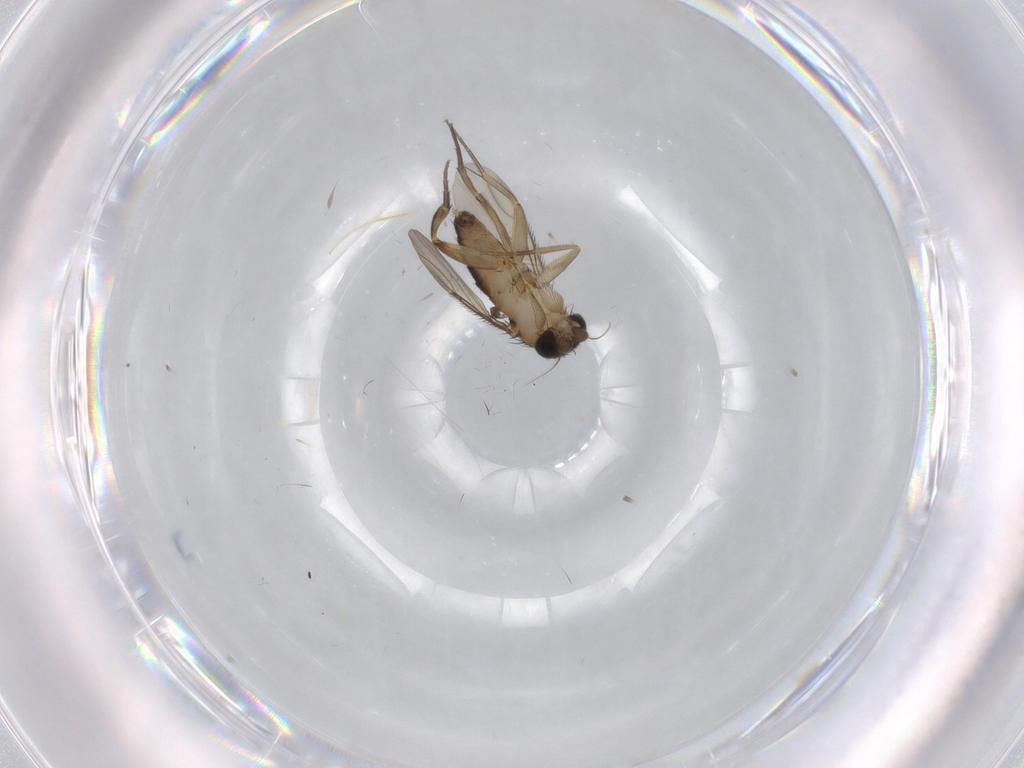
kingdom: Animalia
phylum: Arthropoda
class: Insecta
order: Diptera
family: Phoridae
